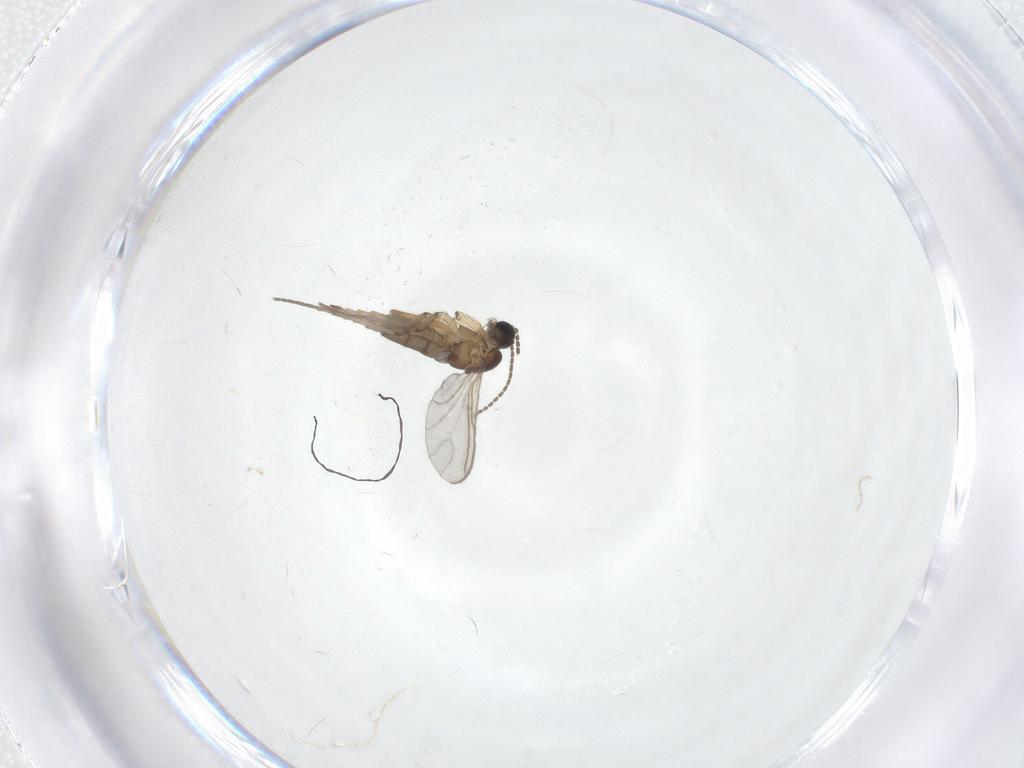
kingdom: Animalia
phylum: Arthropoda
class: Insecta
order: Diptera
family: Sciaridae
